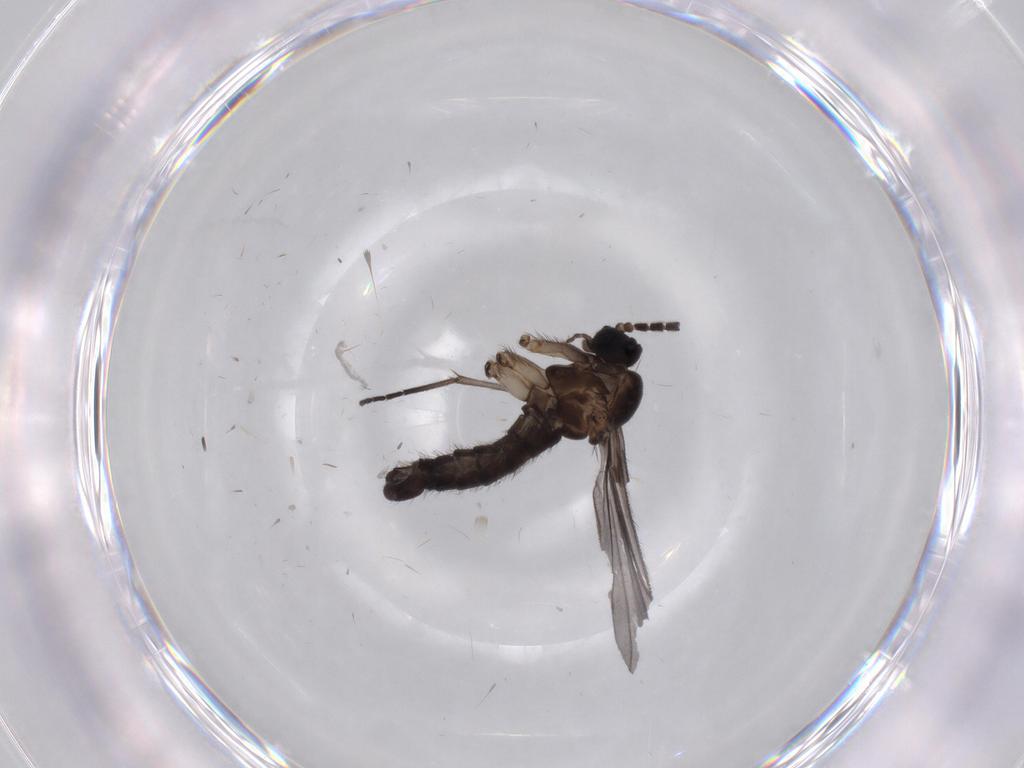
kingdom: Animalia
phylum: Arthropoda
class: Insecta
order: Diptera
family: Sciaridae
